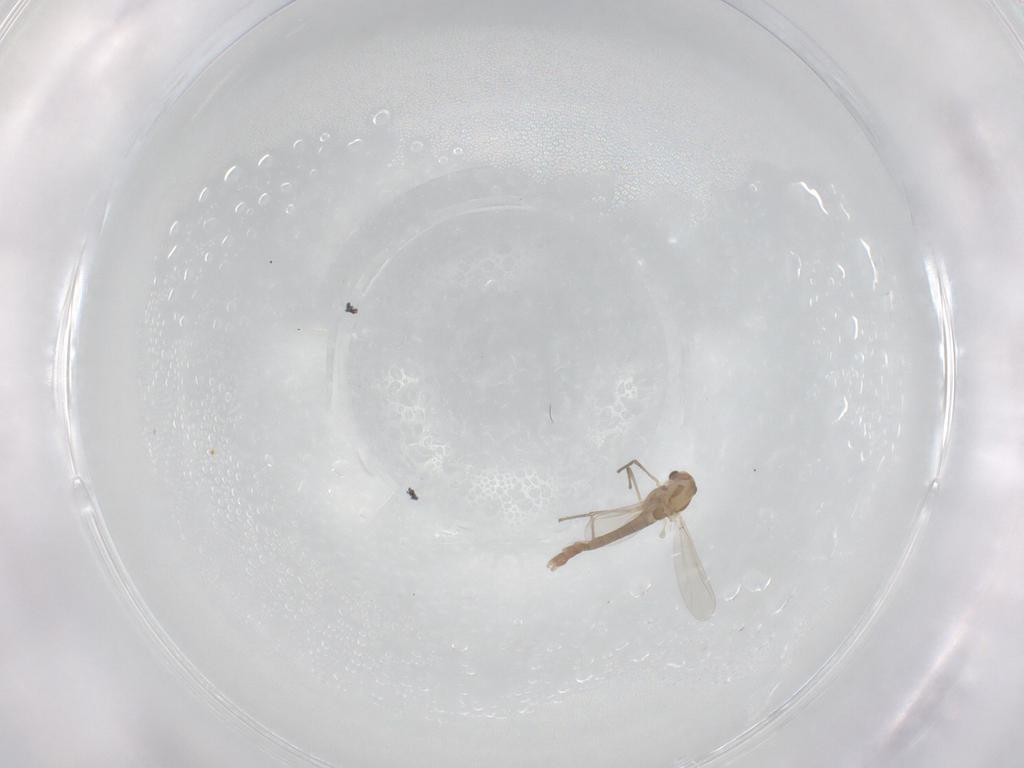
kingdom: Animalia
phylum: Arthropoda
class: Insecta
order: Diptera
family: Chironomidae
